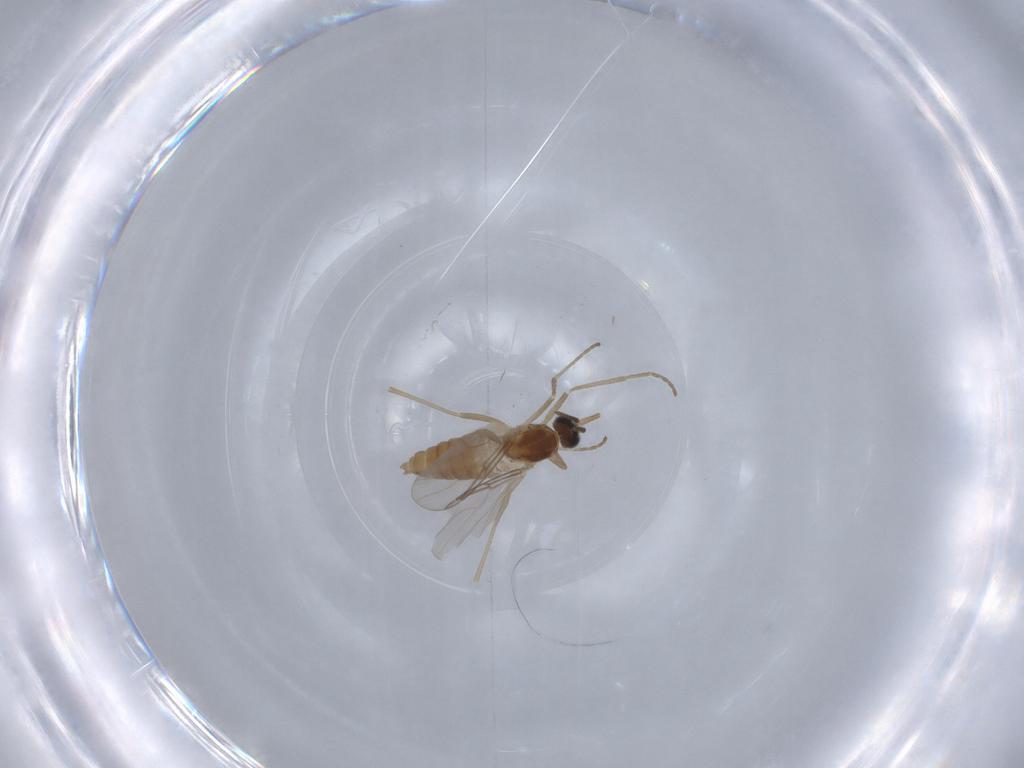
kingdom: Animalia
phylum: Arthropoda
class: Insecta
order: Diptera
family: Cecidomyiidae
